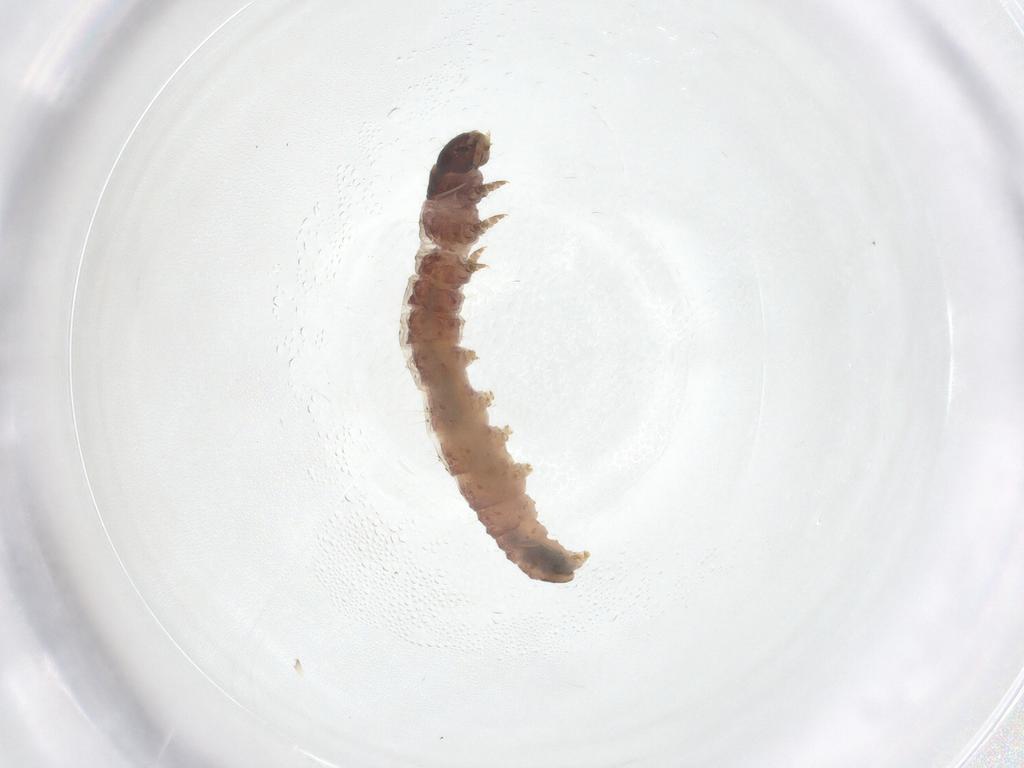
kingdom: Animalia
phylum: Arthropoda
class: Insecta
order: Lepidoptera
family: Blastobasidae
